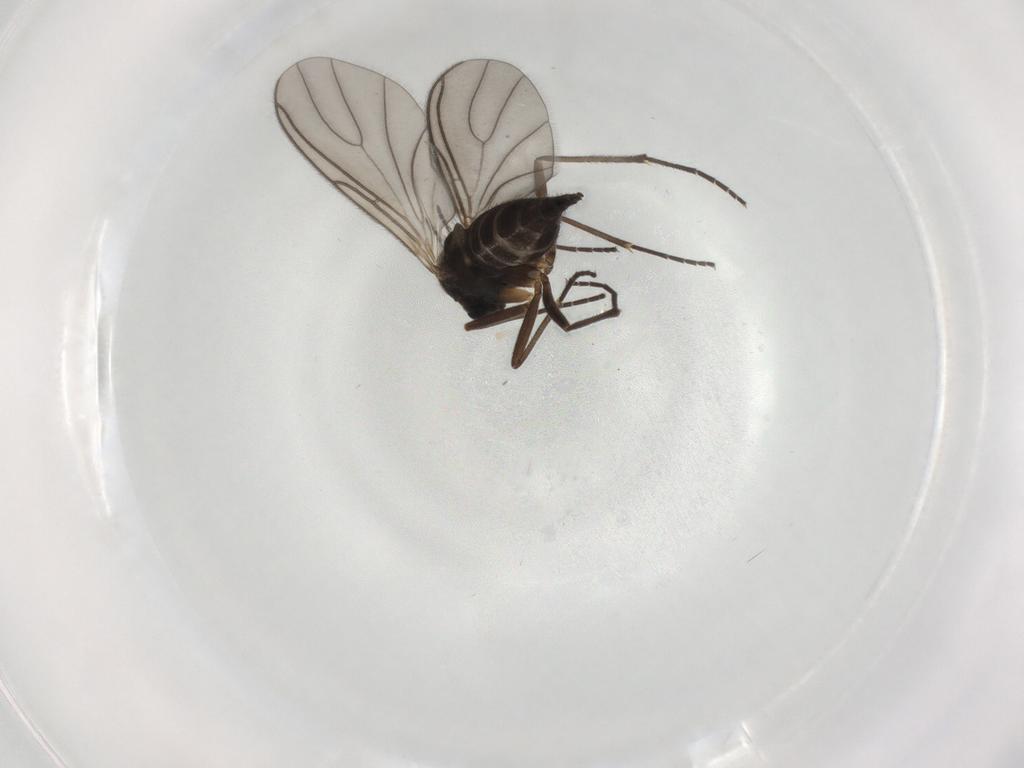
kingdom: Animalia
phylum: Arthropoda
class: Insecta
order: Diptera
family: Sciaridae
